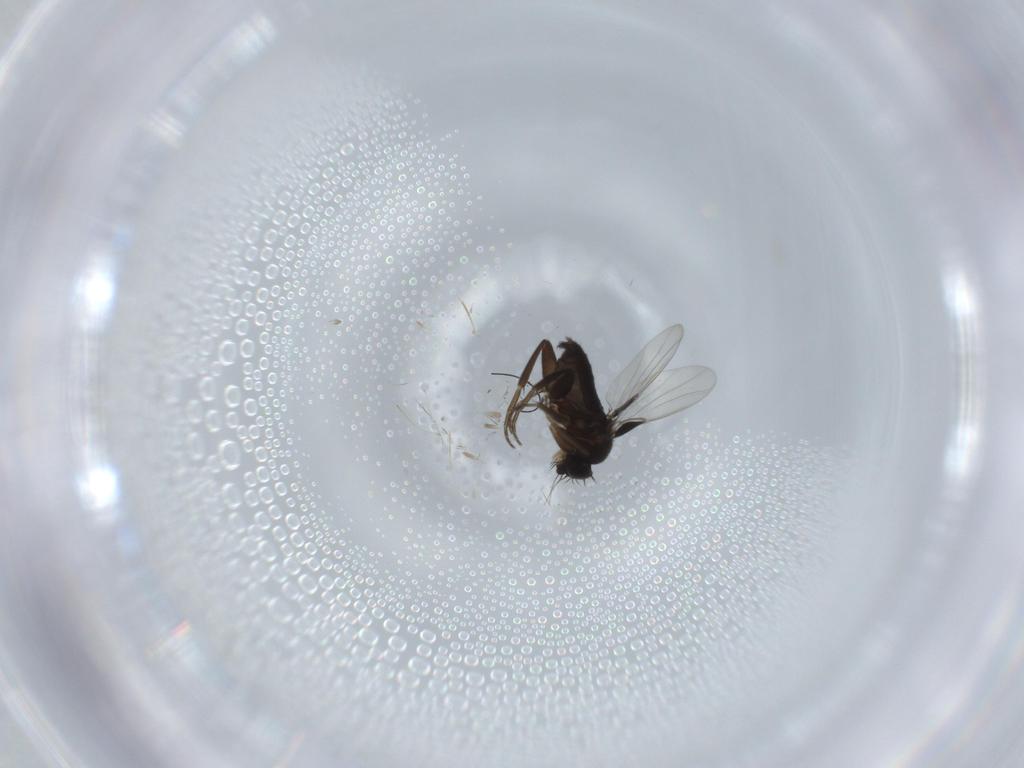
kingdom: Animalia
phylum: Arthropoda
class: Insecta
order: Diptera
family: Phoridae
